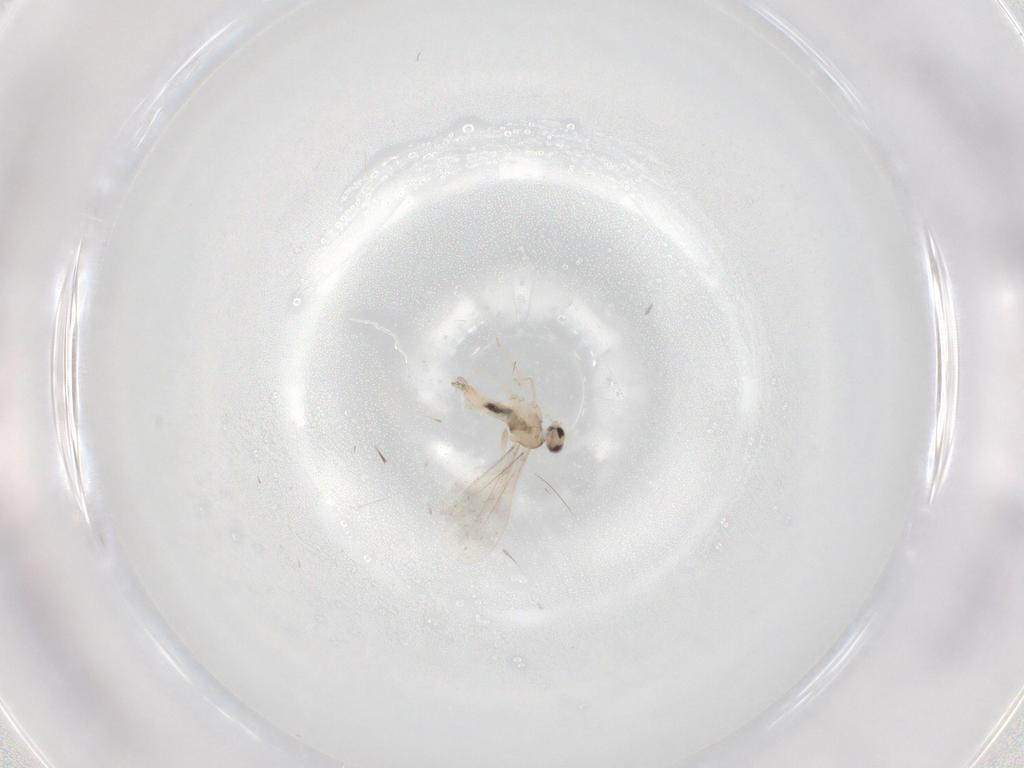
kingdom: Animalia
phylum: Arthropoda
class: Insecta
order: Diptera
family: Cecidomyiidae
